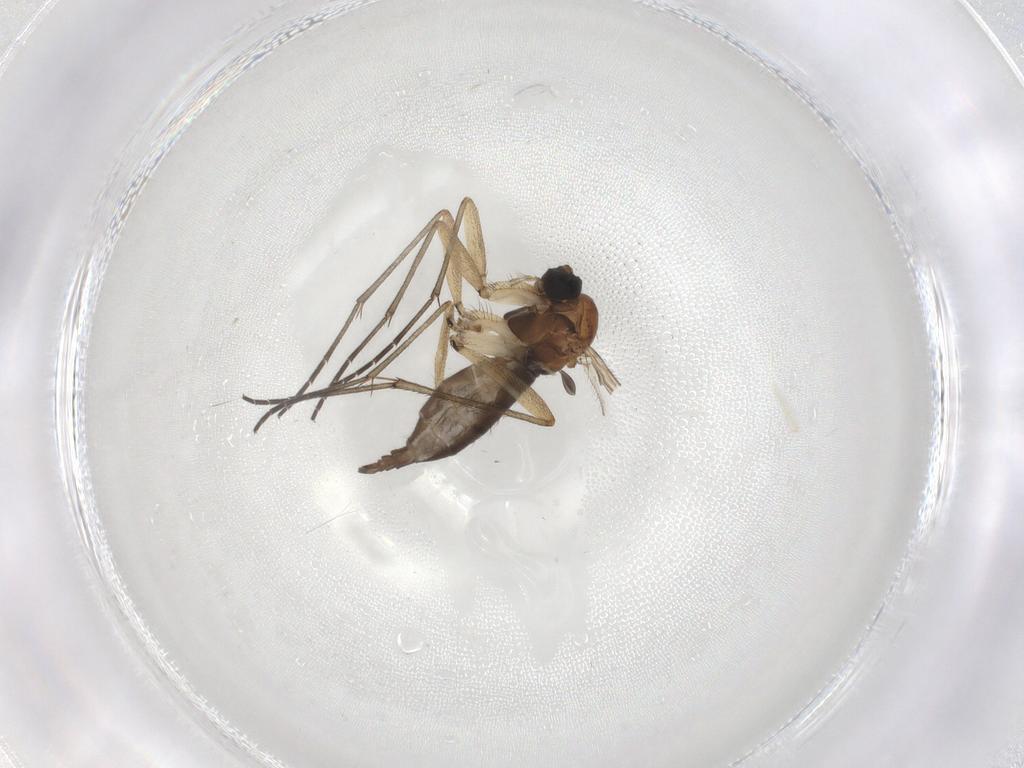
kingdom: Animalia
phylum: Arthropoda
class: Insecta
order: Diptera
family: Sciaridae
